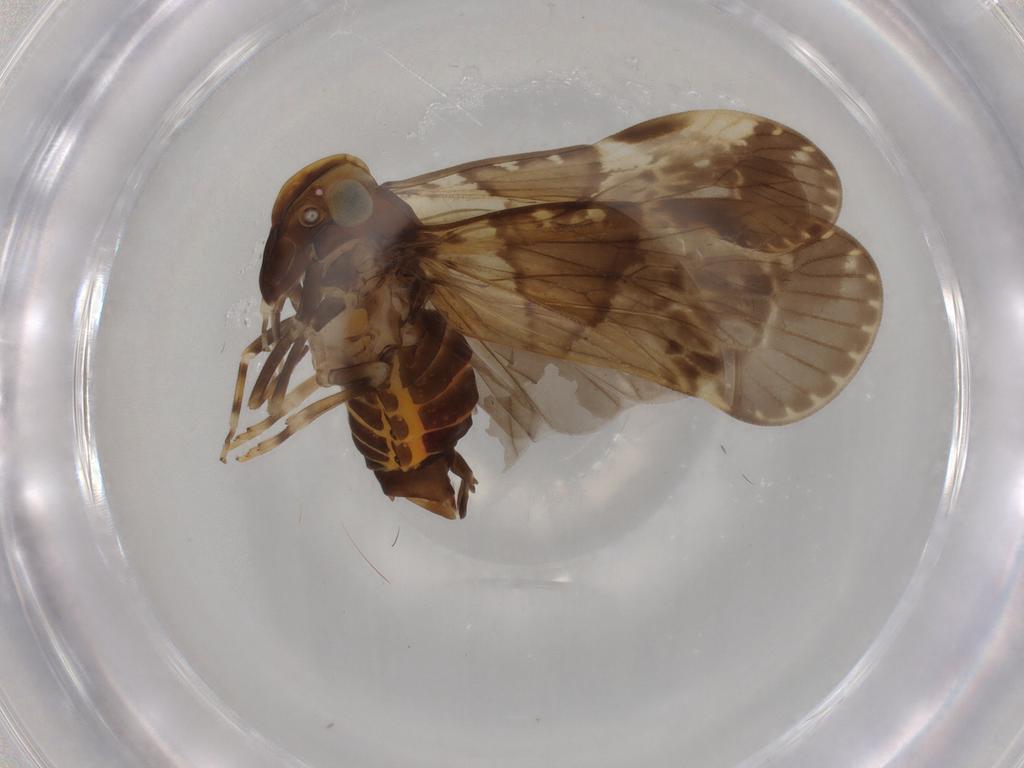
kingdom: Animalia
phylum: Arthropoda
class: Insecta
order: Hemiptera
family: Cixiidae
